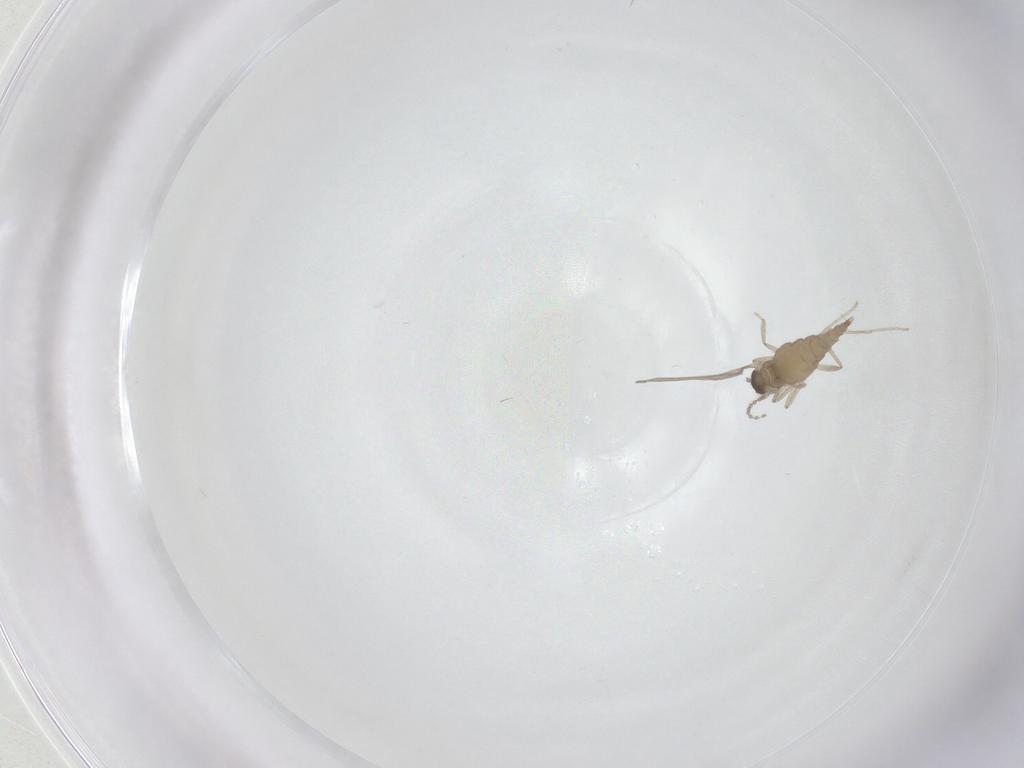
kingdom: Animalia
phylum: Arthropoda
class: Insecta
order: Diptera
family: Cecidomyiidae
